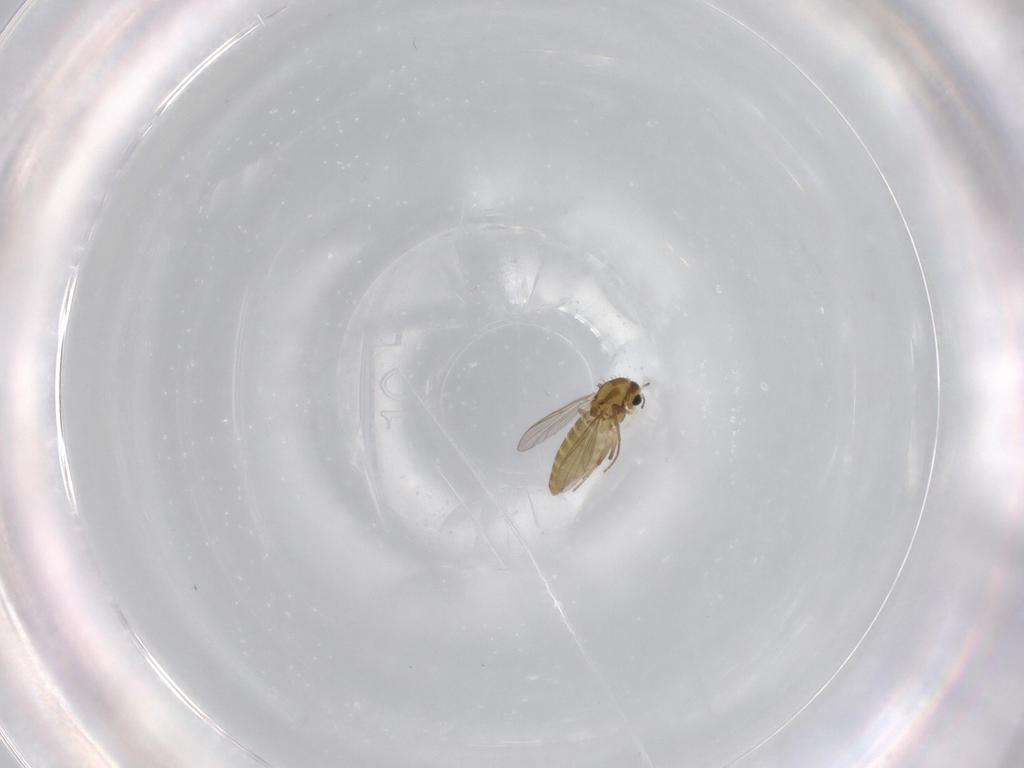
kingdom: Animalia
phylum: Arthropoda
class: Insecta
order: Diptera
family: Chironomidae
